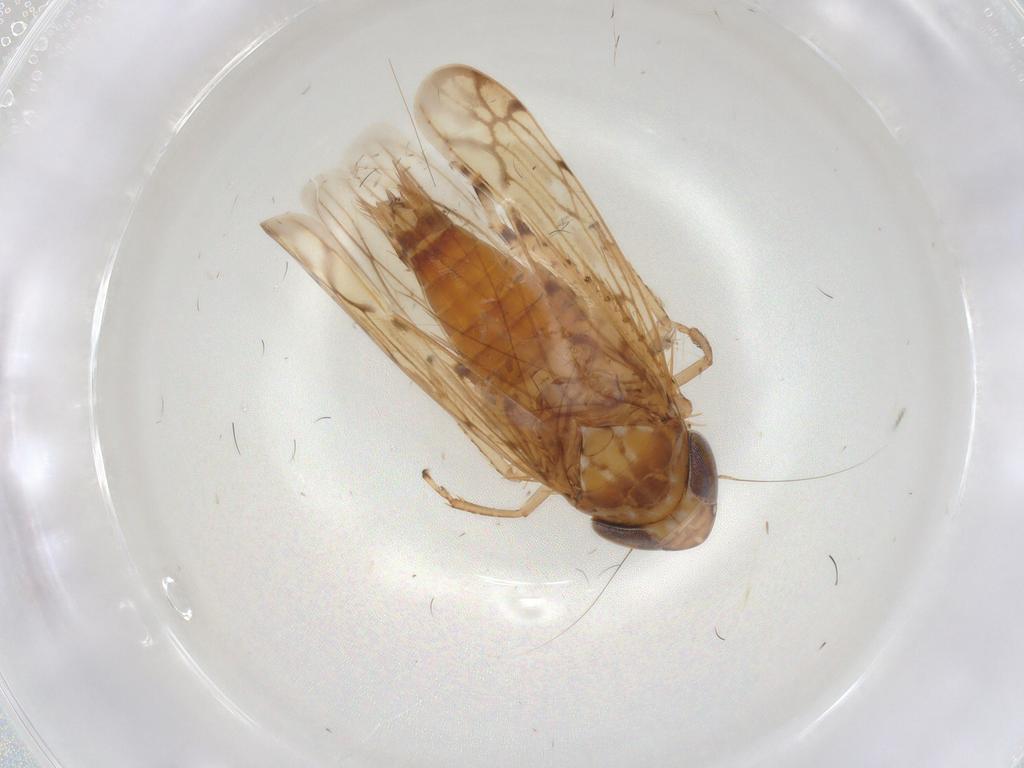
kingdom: Animalia
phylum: Arthropoda
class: Insecta
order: Hemiptera
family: Cicadellidae
